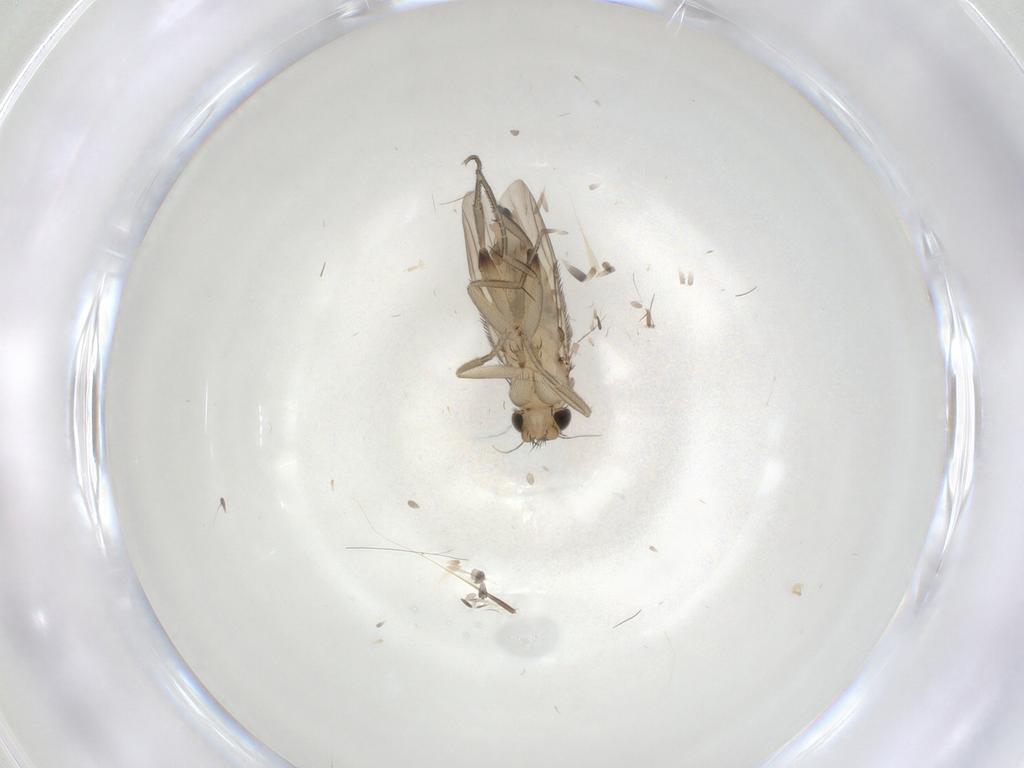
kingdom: Animalia
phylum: Arthropoda
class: Insecta
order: Diptera
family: Phoridae
